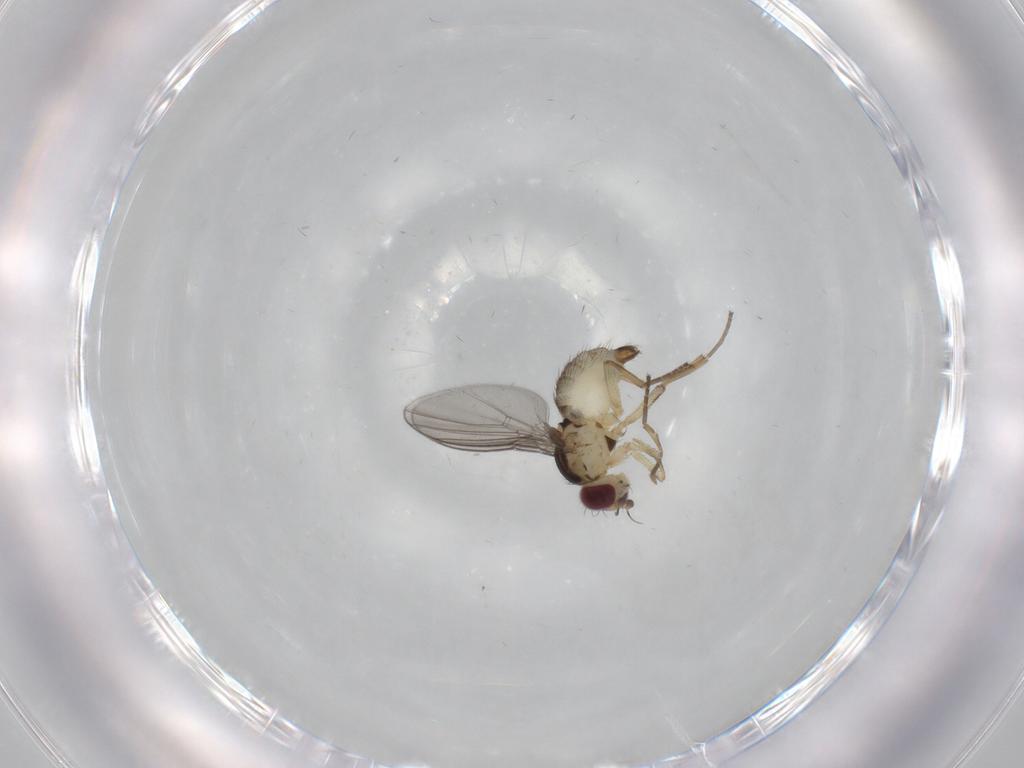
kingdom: Animalia
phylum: Arthropoda
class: Insecta
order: Diptera
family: Agromyzidae
